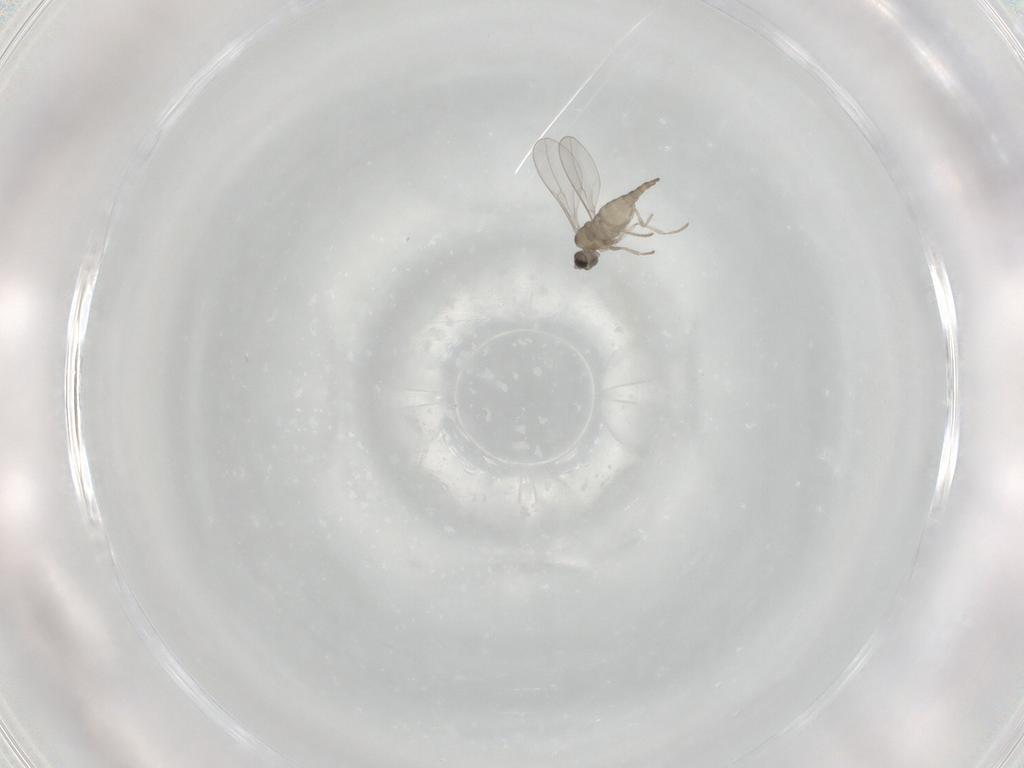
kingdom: Animalia
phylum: Arthropoda
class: Insecta
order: Diptera
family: Cecidomyiidae
